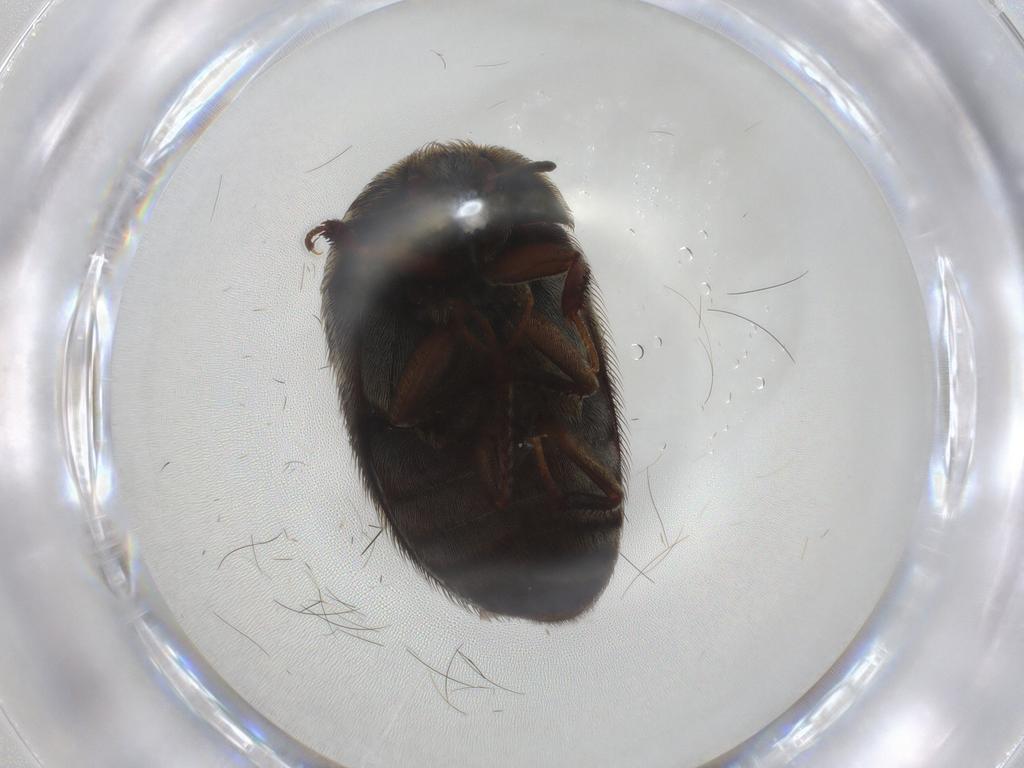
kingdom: Animalia
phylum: Arthropoda
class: Insecta
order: Coleoptera
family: Dermestidae
